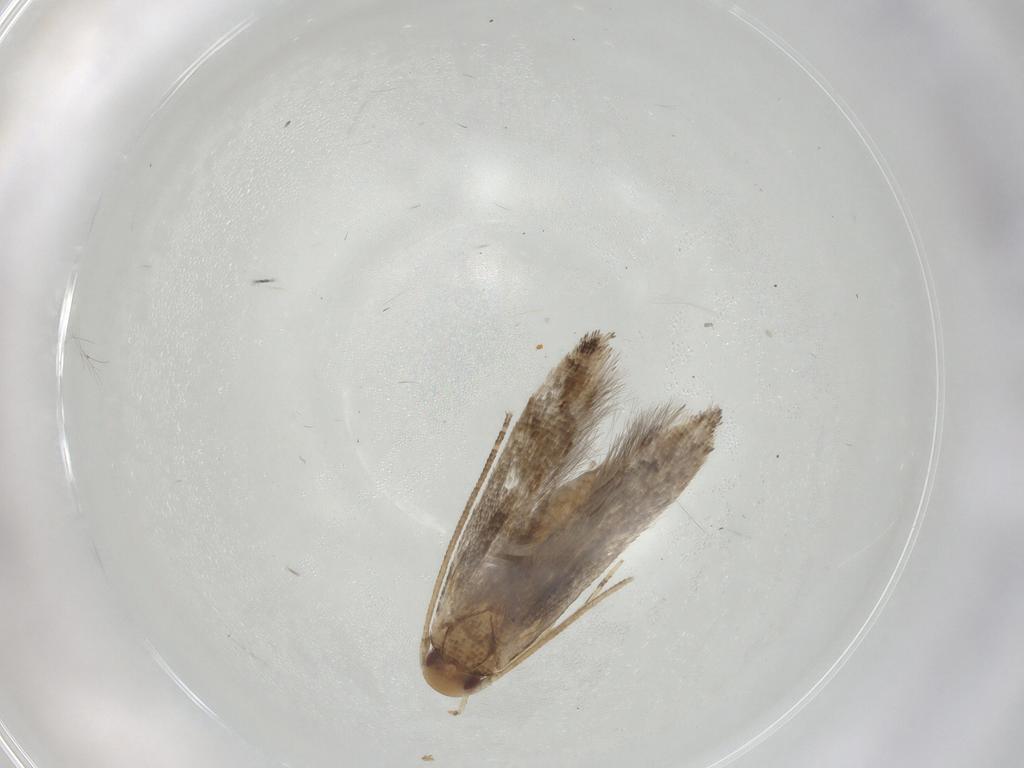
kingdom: Animalia
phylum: Arthropoda
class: Insecta
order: Lepidoptera
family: Momphidae
